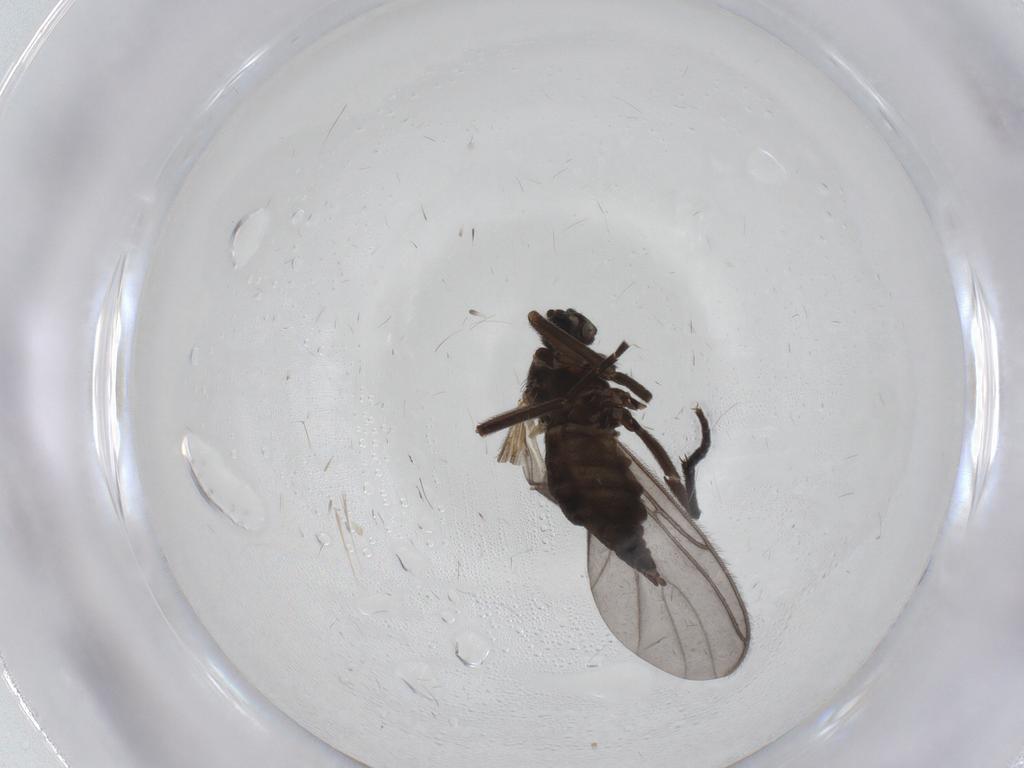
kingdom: Animalia
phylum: Arthropoda
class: Insecta
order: Diptera
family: Sciaridae
